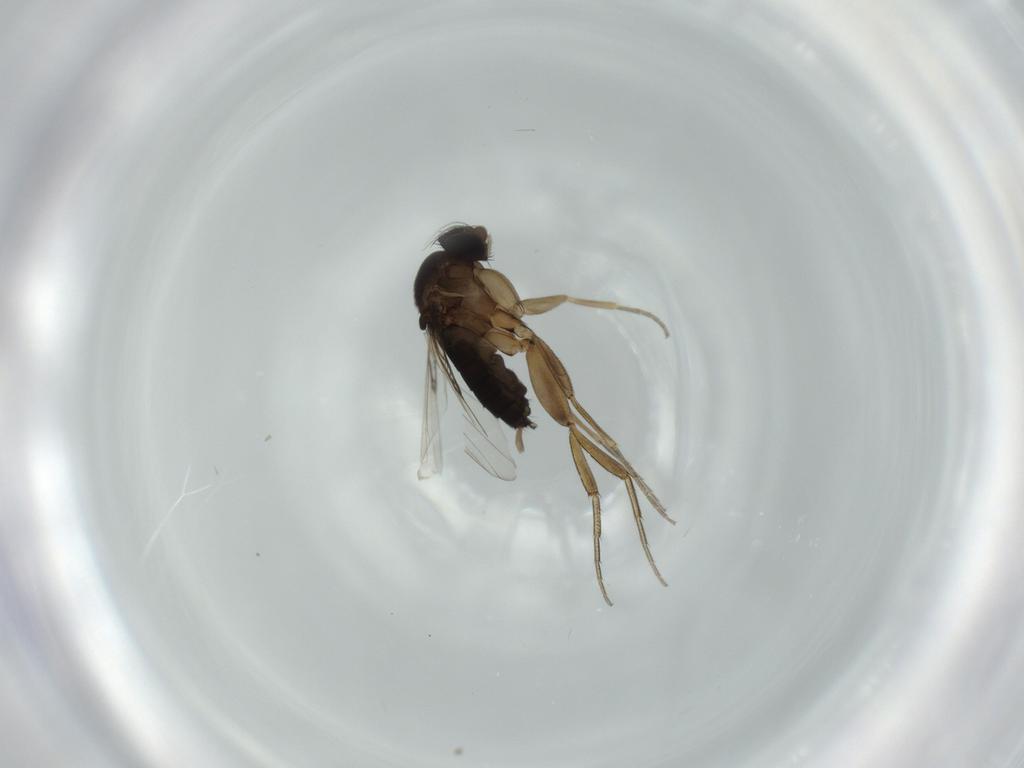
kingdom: Animalia
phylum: Arthropoda
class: Insecta
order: Diptera
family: Phoridae
